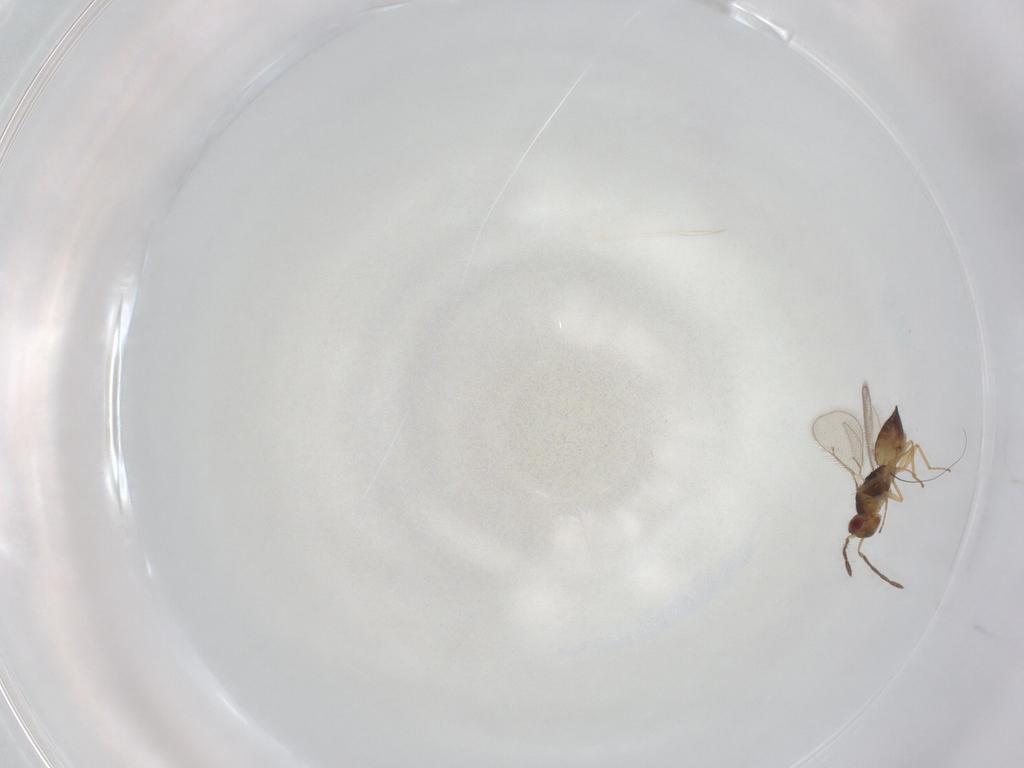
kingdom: Animalia
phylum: Arthropoda
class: Insecta
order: Hymenoptera
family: Eulophidae
